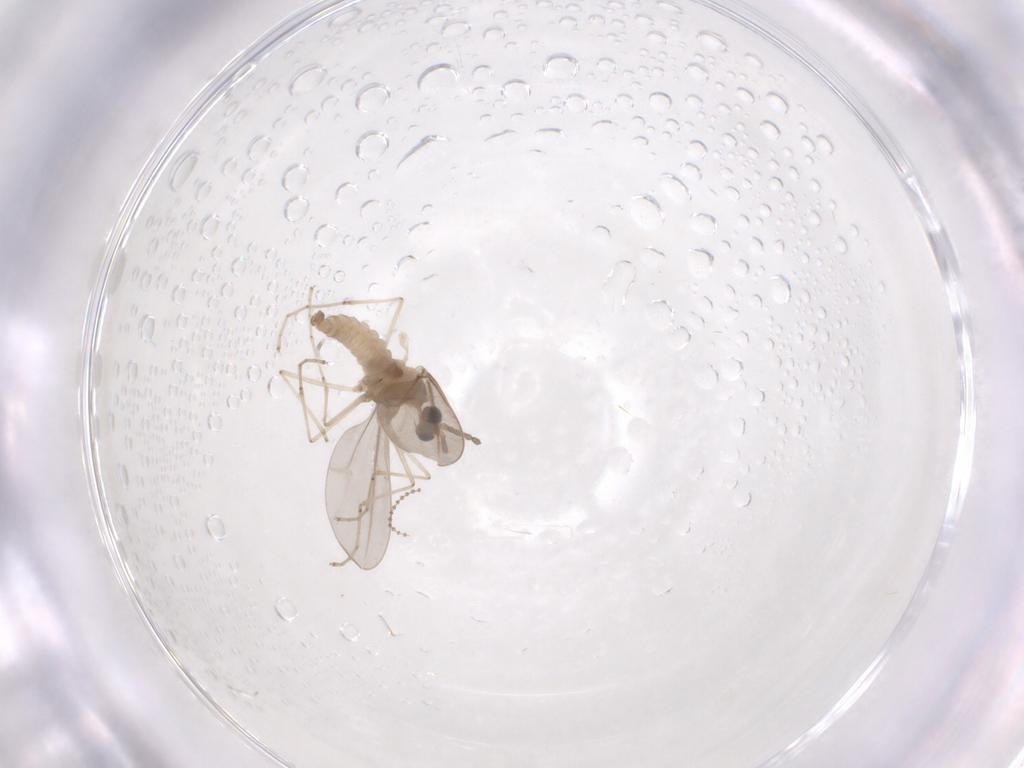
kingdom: Animalia
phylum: Arthropoda
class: Insecta
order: Diptera
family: Cecidomyiidae
